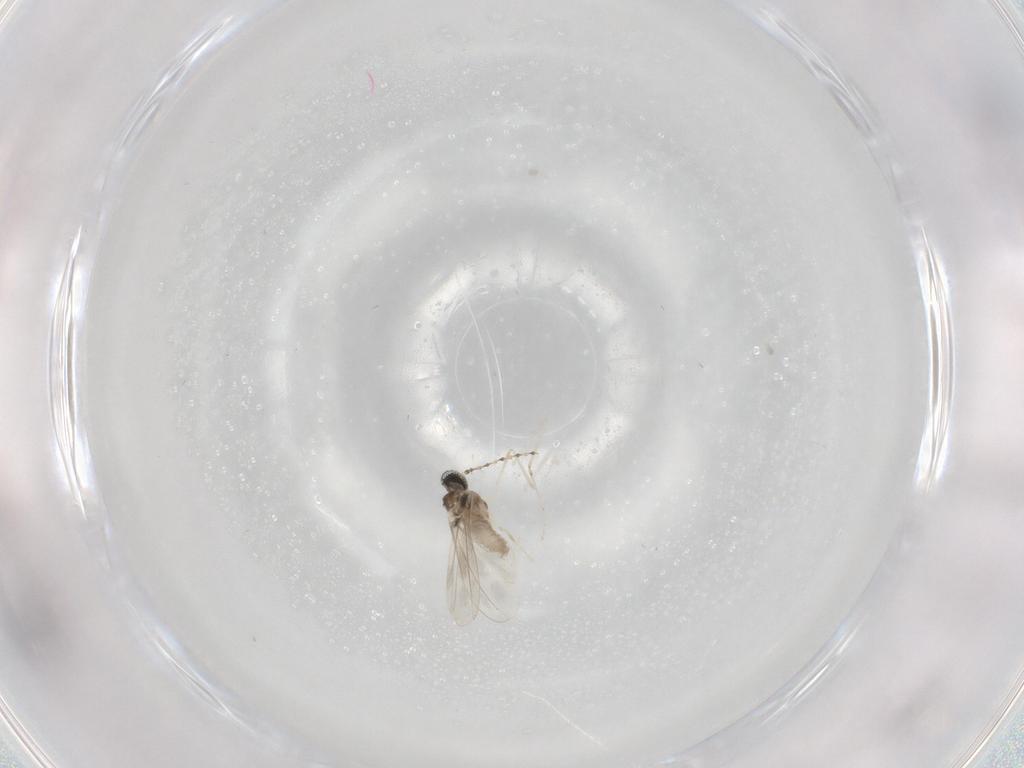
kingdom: Animalia
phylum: Arthropoda
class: Insecta
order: Diptera
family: Cecidomyiidae
